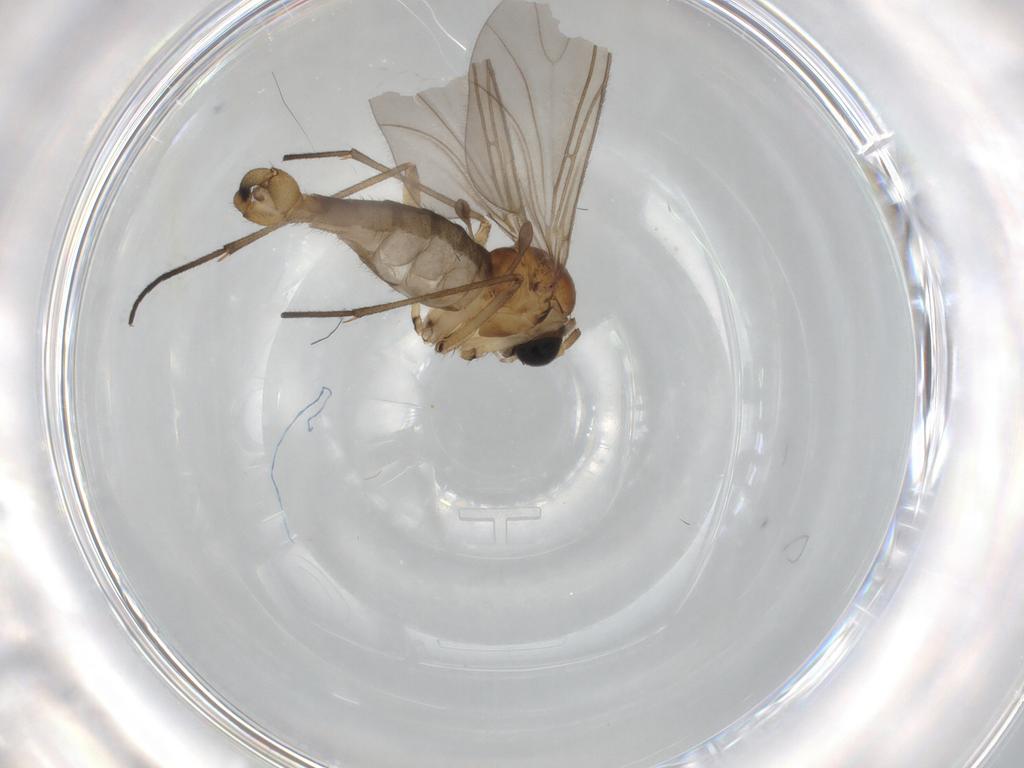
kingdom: Animalia
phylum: Arthropoda
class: Insecta
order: Diptera
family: Sciaridae
